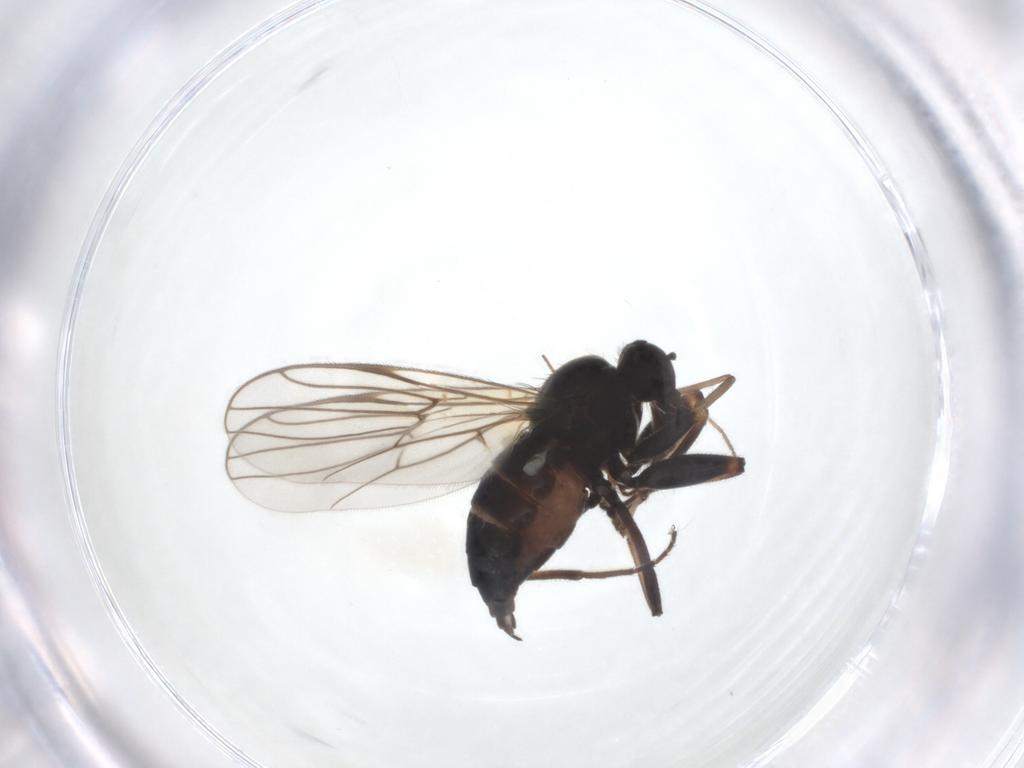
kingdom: Animalia
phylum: Arthropoda
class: Insecta
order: Diptera
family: Hybotidae
